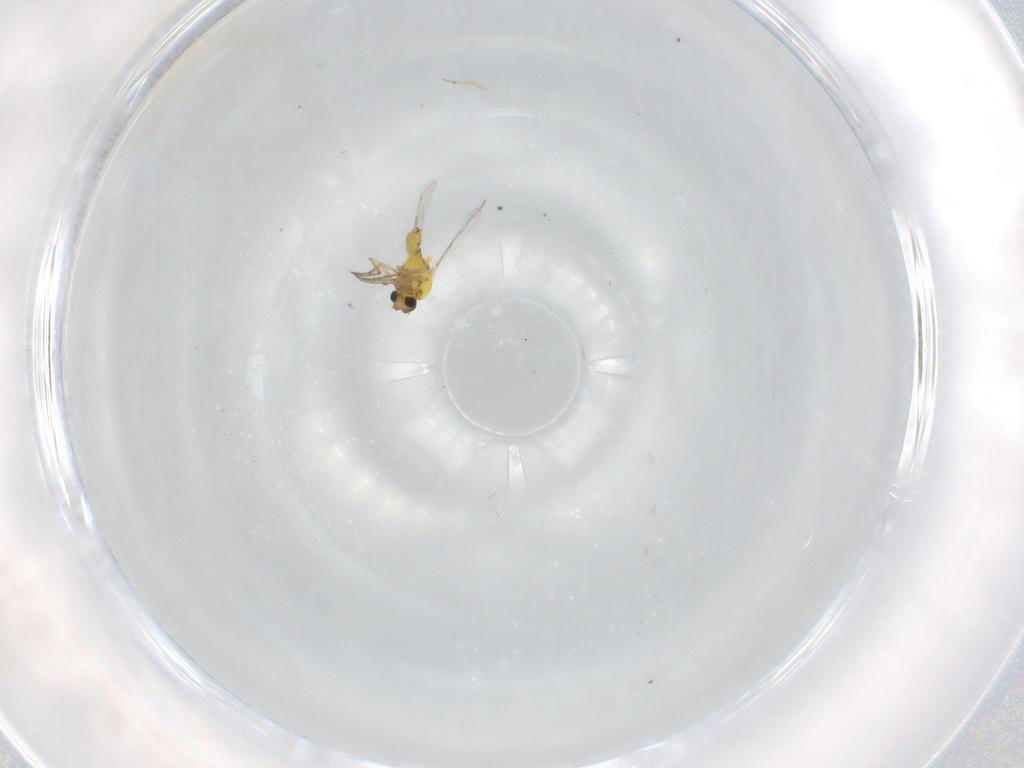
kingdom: Animalia
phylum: Arthropoda
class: Insecta
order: Diptera
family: Ceratopogonidae
